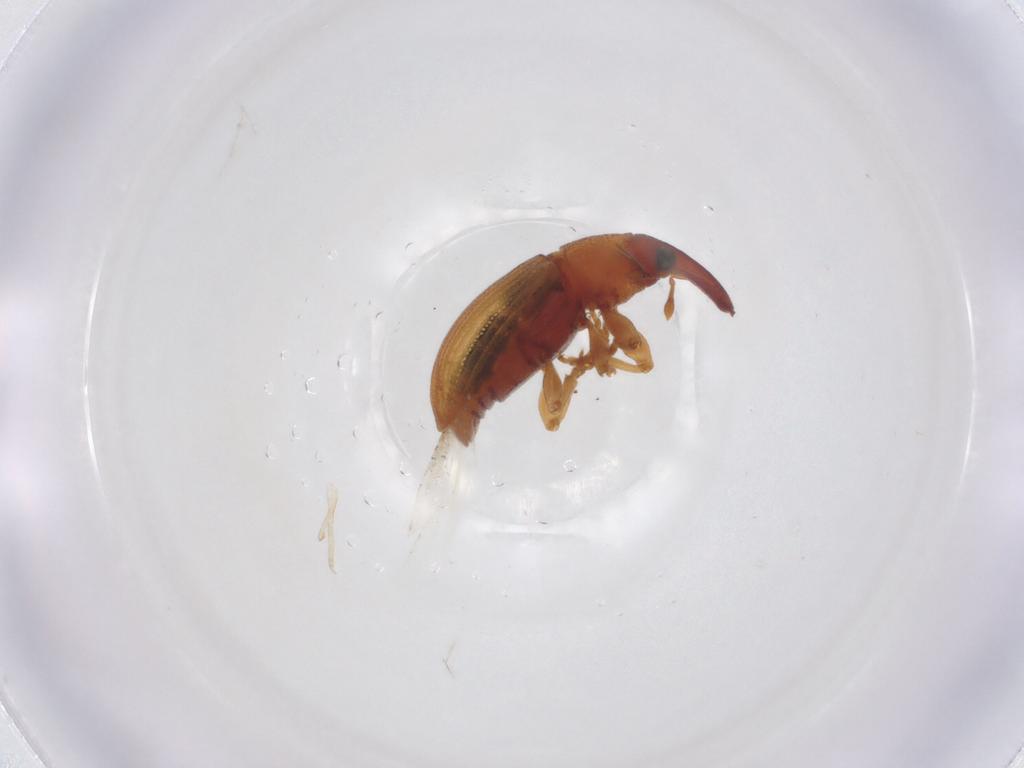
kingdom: Animalia
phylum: Arthropoda
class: Insecta
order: Coleoptera
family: Curculionidae
